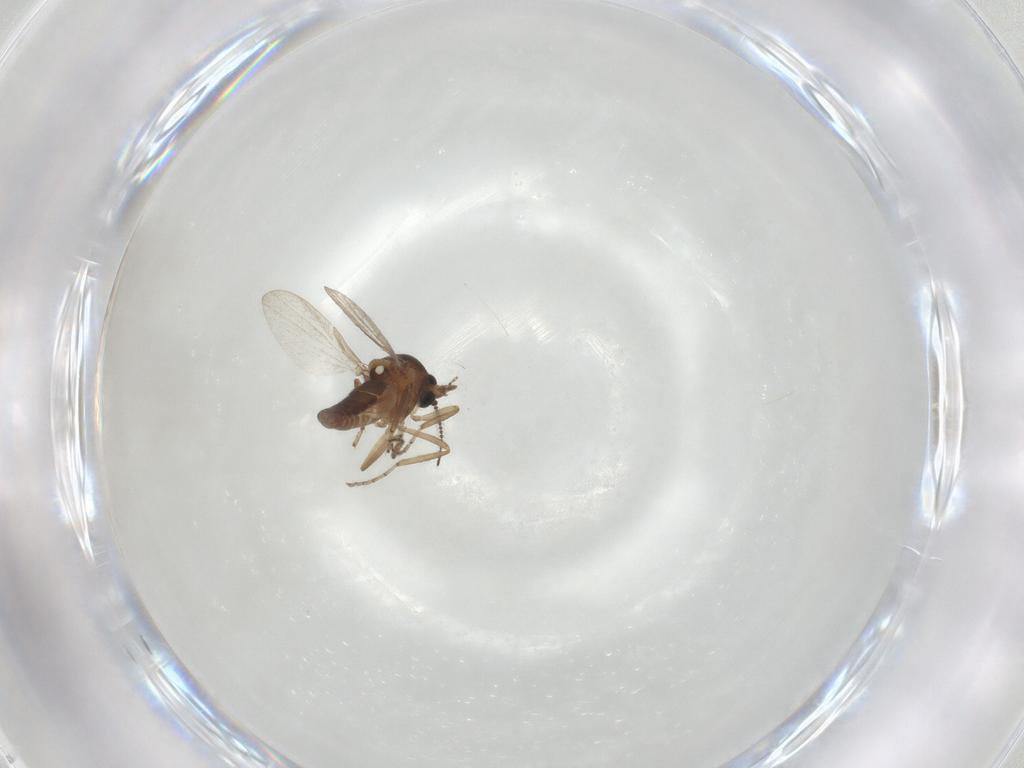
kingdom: Animalia
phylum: Arthropoda
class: Insecta
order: Diptera
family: Ceratopogonidae
